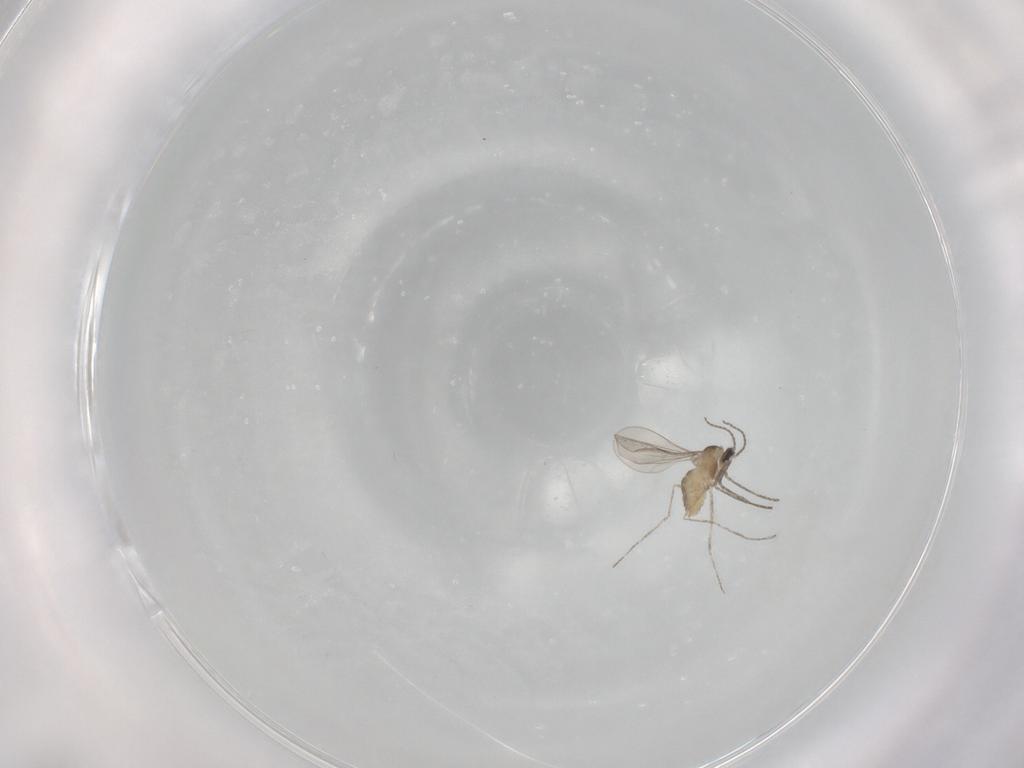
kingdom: Animalia
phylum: Arthropoda
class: Insecta
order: Diptera
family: Cecidomyiidae
